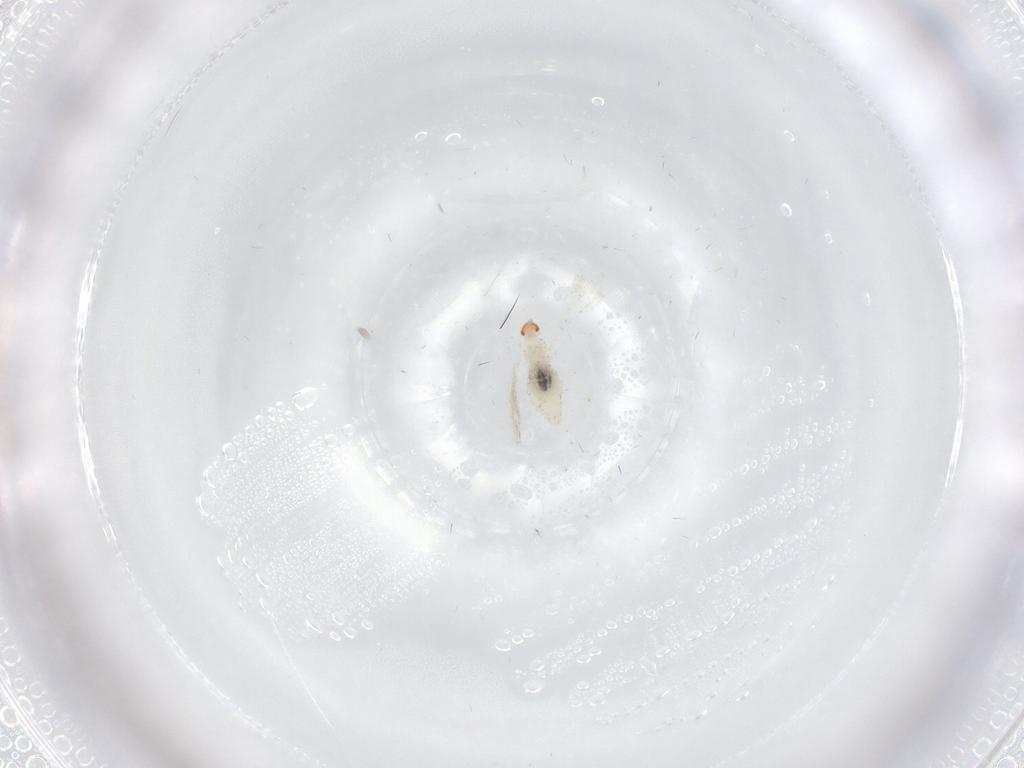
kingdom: Animalia
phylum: Arthropoda
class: Insecta
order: Diptera
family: Cecidomyiidae
